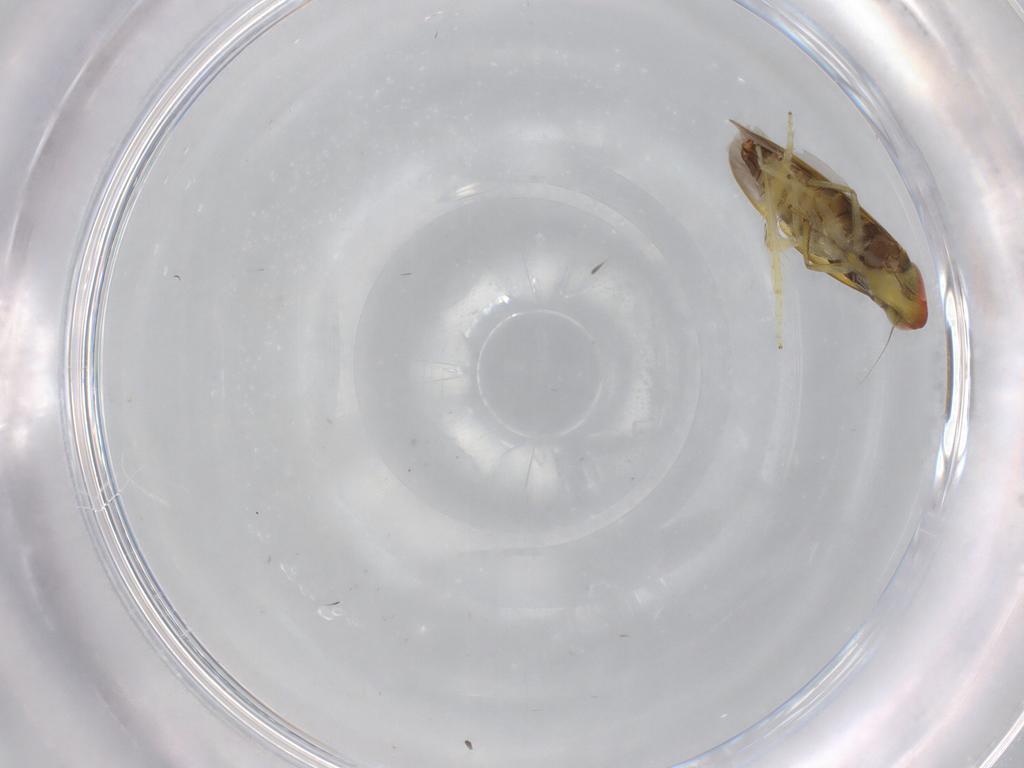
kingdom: Animalia
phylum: Arthropoda
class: Insecta
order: Hemiptera
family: Cicadellidae
